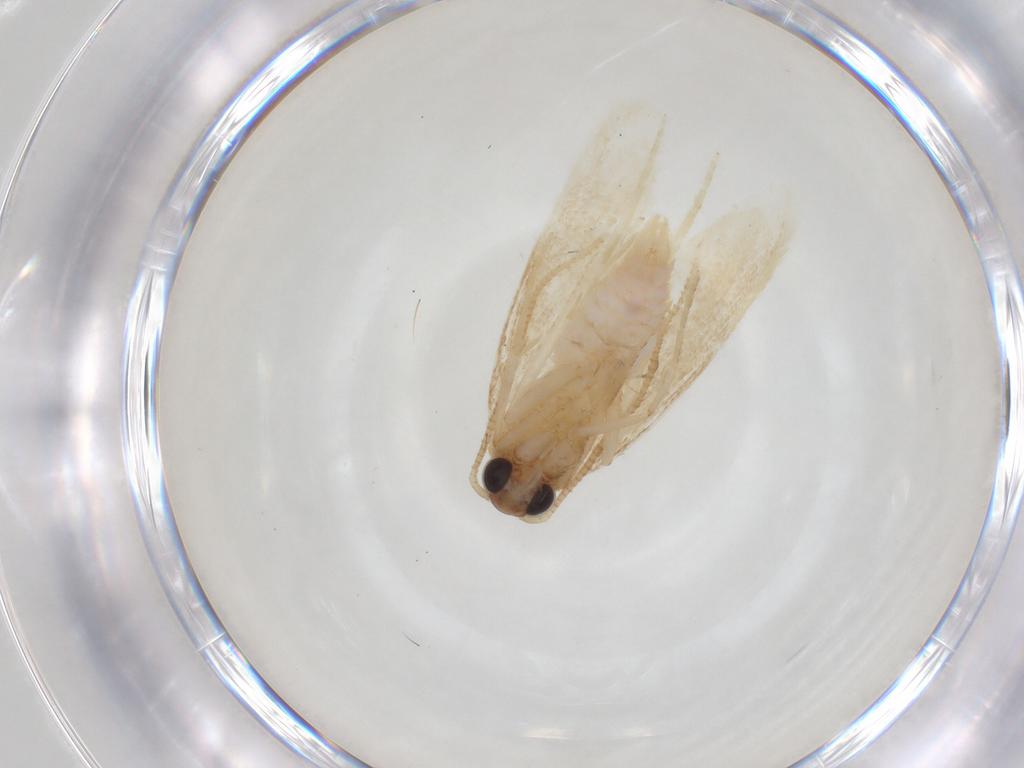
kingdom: Animalia
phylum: Arthropoda
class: Insecta
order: Lepidoptera
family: Autostichidae
